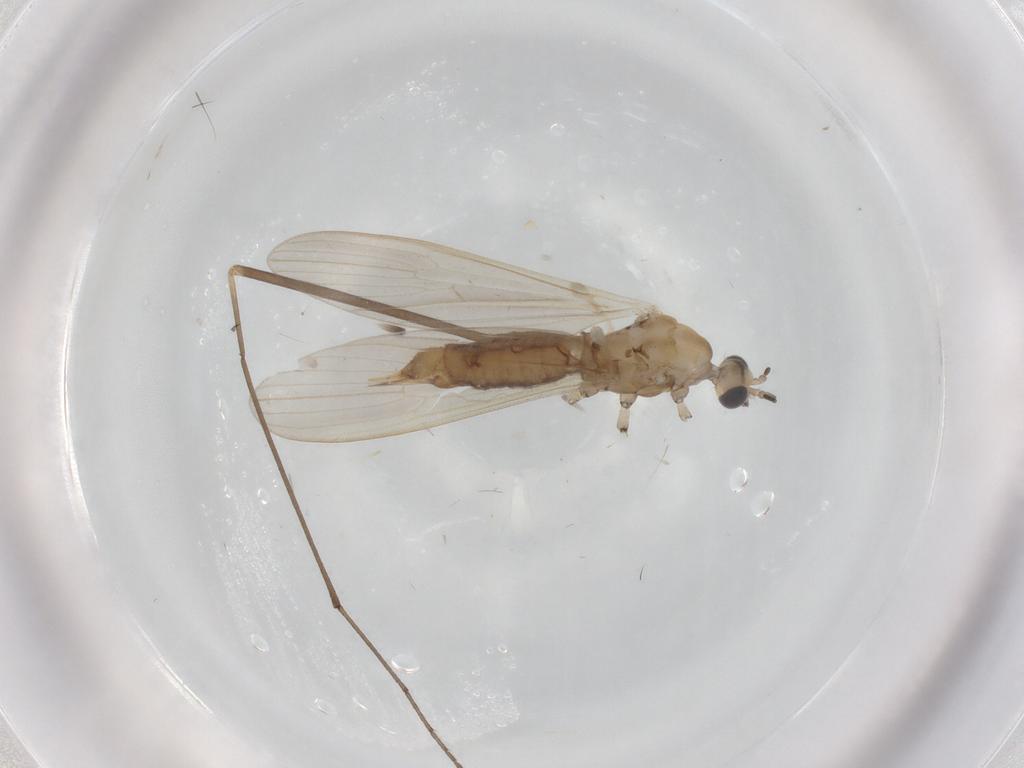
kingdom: Animalia
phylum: Arthropoda
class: Insecta
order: Diptera
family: Limoniidae
